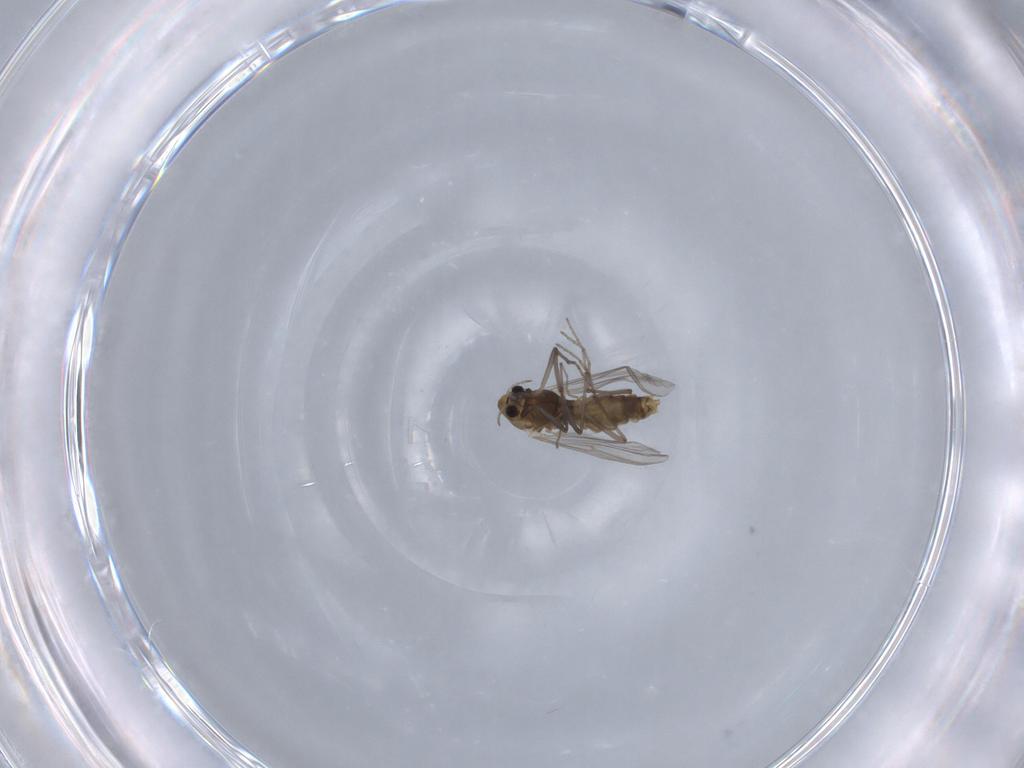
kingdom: Animalia
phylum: Arthropoda
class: Insecta
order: Diptera
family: Chironomidae
